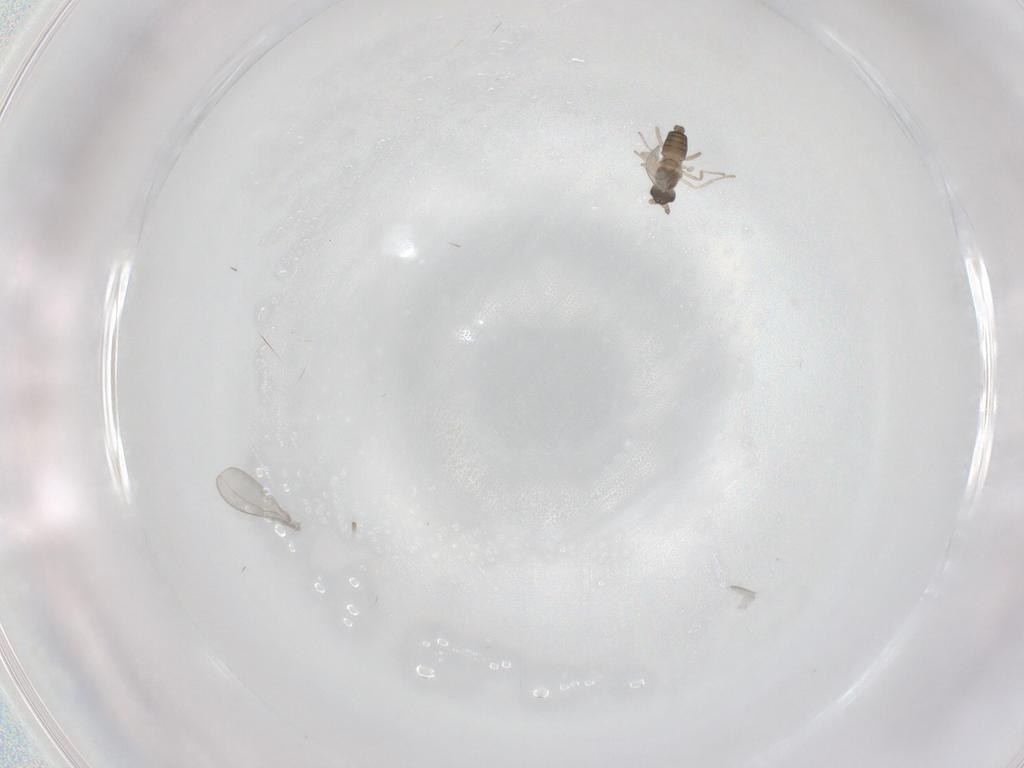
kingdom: Animalia
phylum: Arthropoda
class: Insecta
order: Diptera
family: Cecidomyiidae
